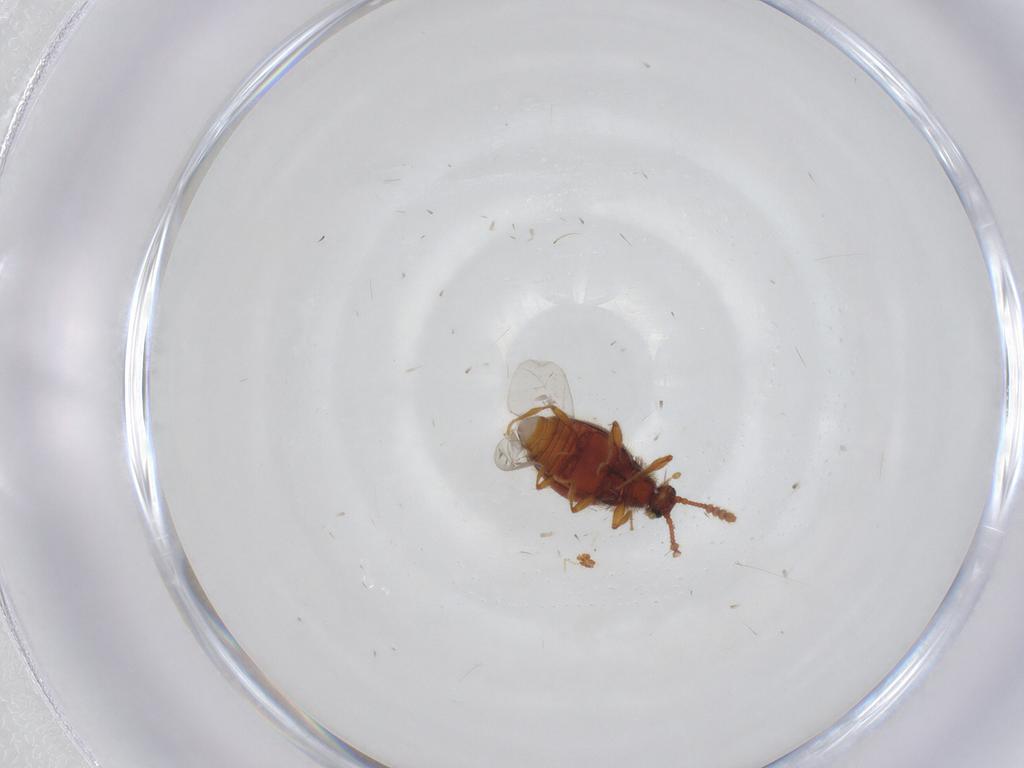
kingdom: Animalia
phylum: Arthropoda
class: Insecta
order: Coleoptera
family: Staphylinidae
